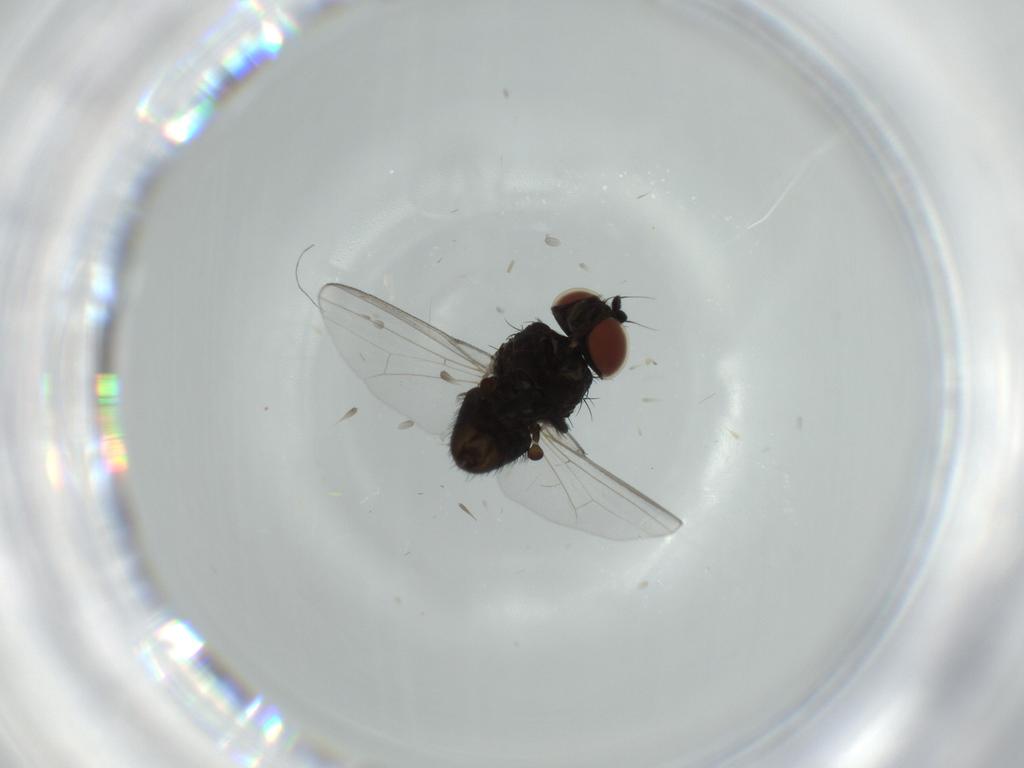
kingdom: Animalia
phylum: Arthropoda
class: Insecta
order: Diptera
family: Milichiidae
